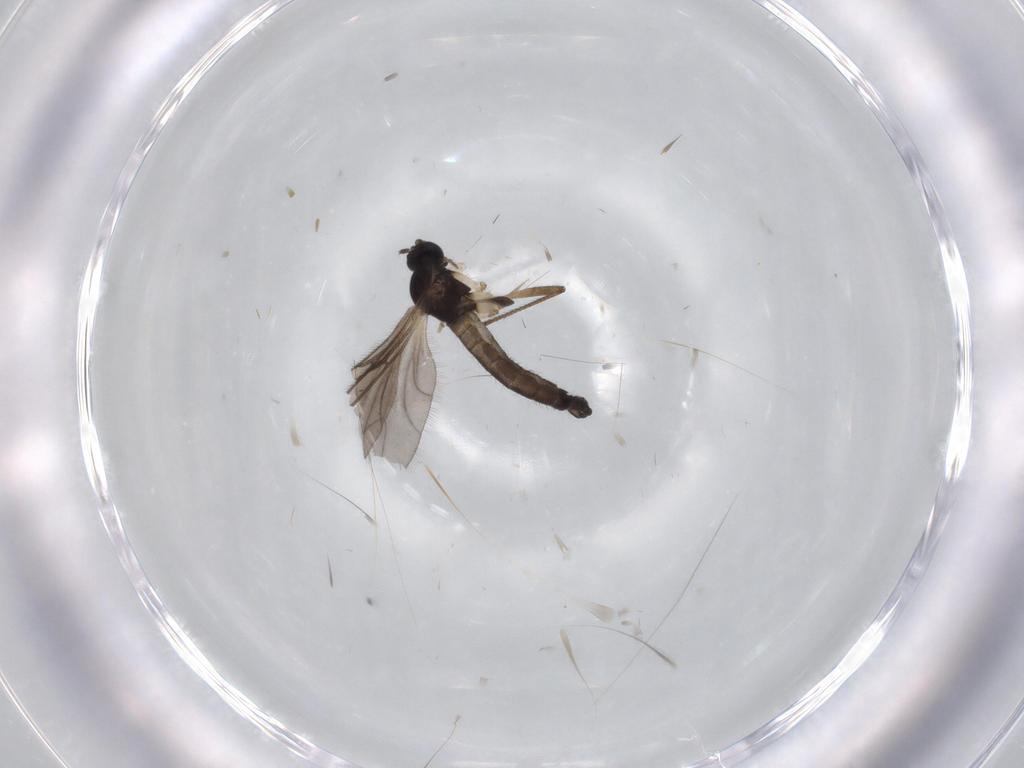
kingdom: Animalia
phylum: Arthropoda
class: Insecta
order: Diptera
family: Sciaridae
